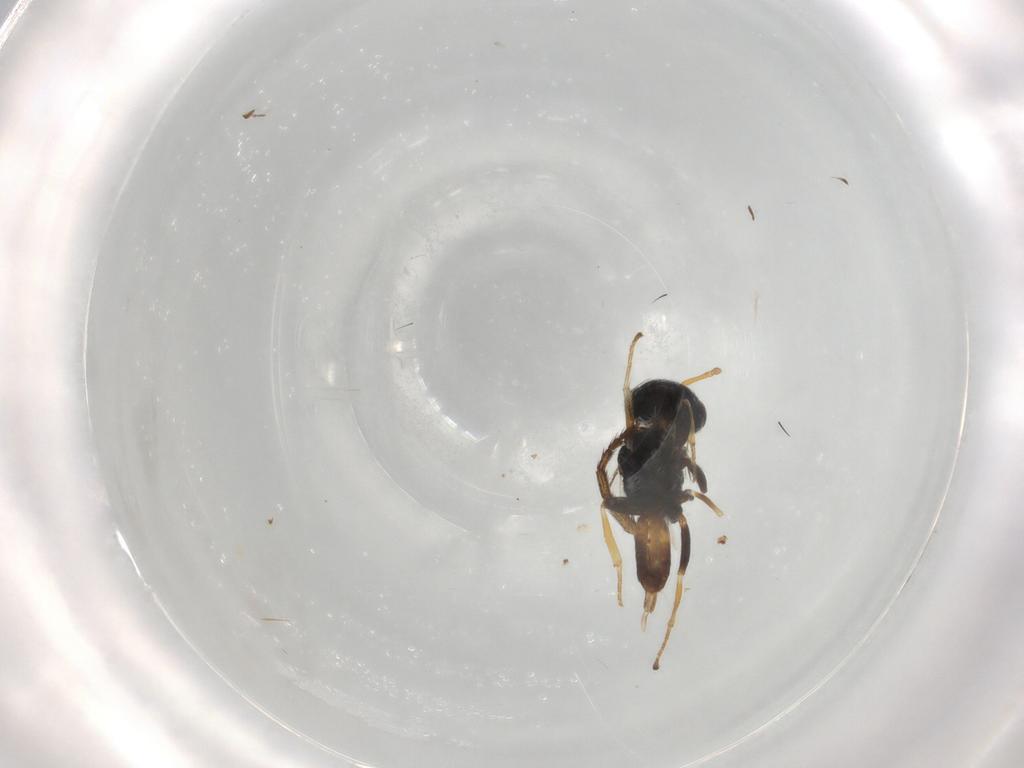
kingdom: Animalia
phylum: Arthropoda
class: Insecta
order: Hymenoptera
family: Pteromalidae
